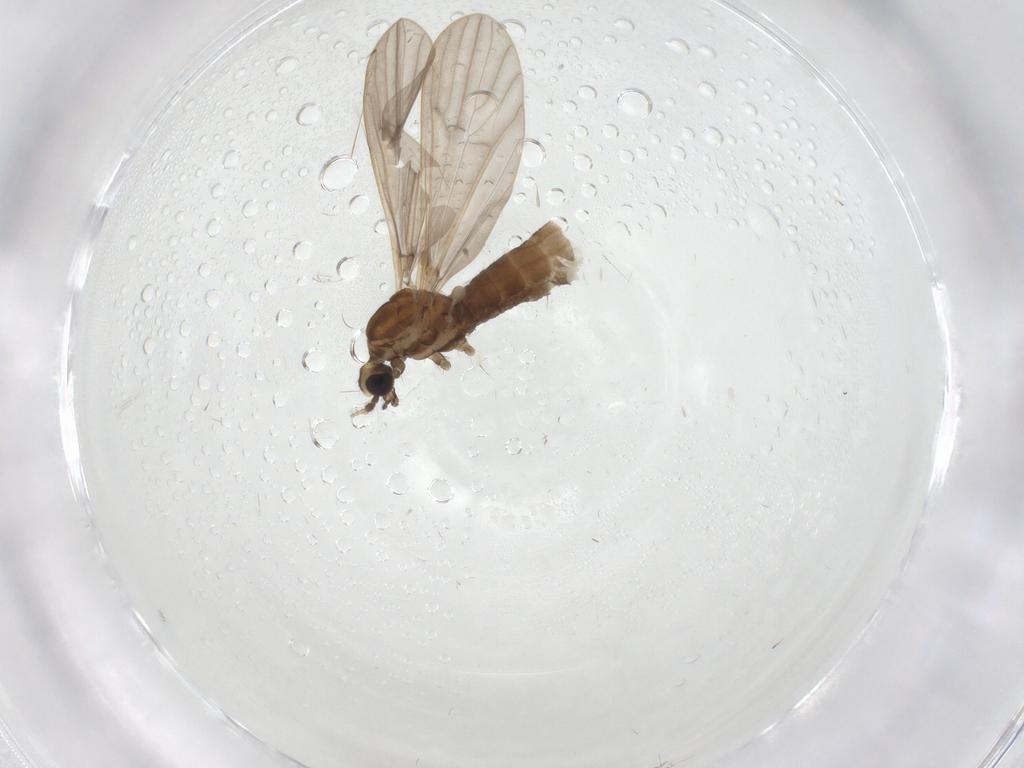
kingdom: Animalia
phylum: Arthropoda
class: Insecta
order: Diptera
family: Limoniidae
